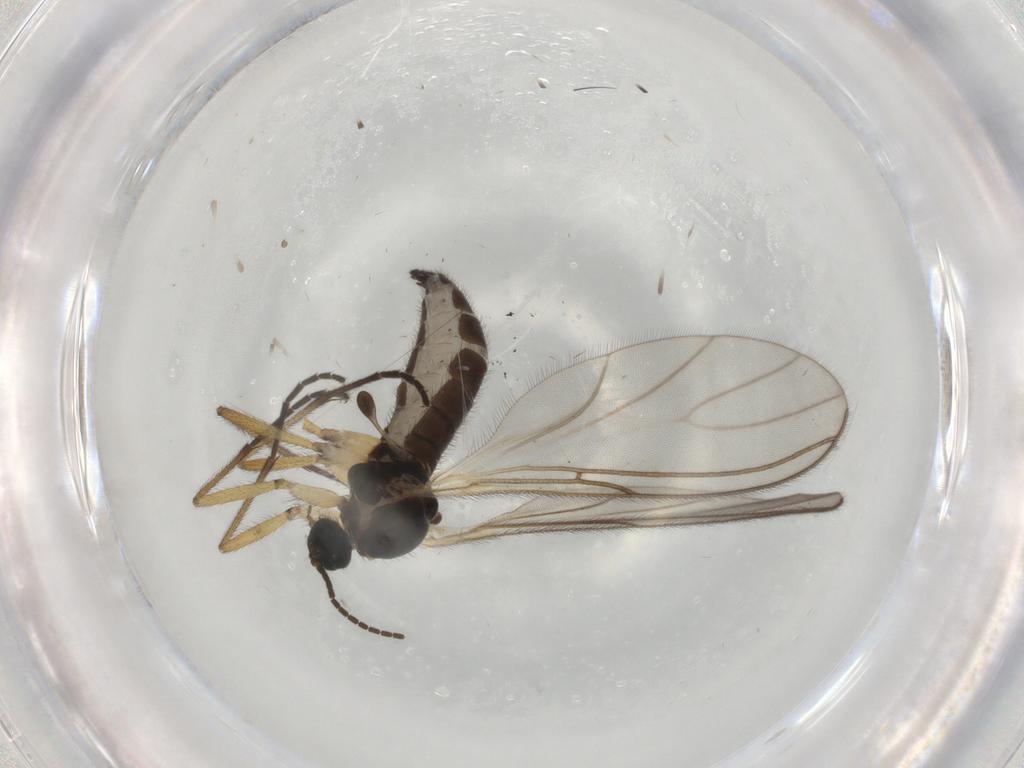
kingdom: Animalia
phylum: Arthropoda
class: Insecta
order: Diptera
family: Sciaridae
